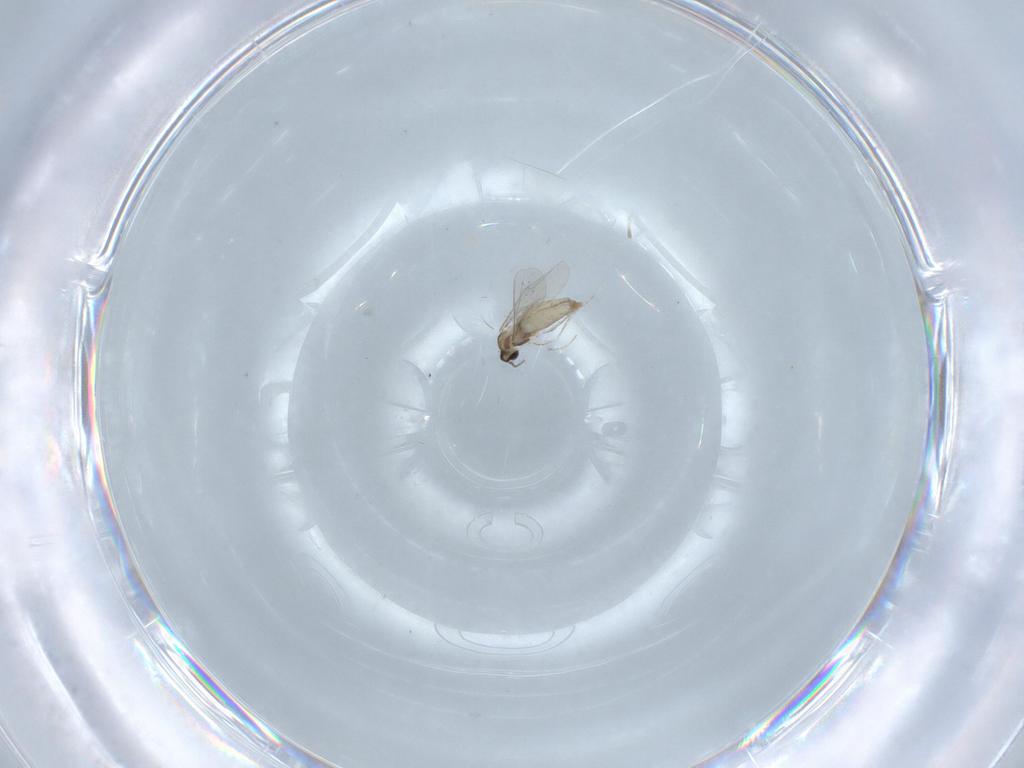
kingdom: Animalia
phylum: Arthropoda
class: Insecta
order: Diptera
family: Cecidomyiidae
